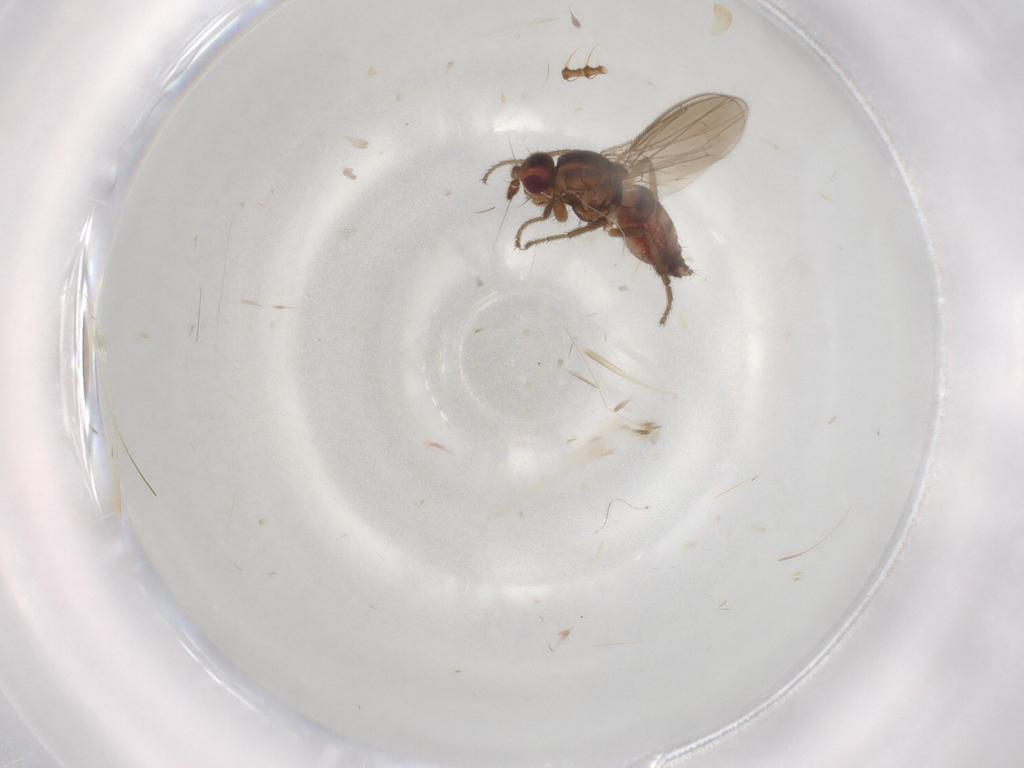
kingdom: Animalia
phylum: Arthropoda
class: Insecta
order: Diptera
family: Sphaeroceridae
